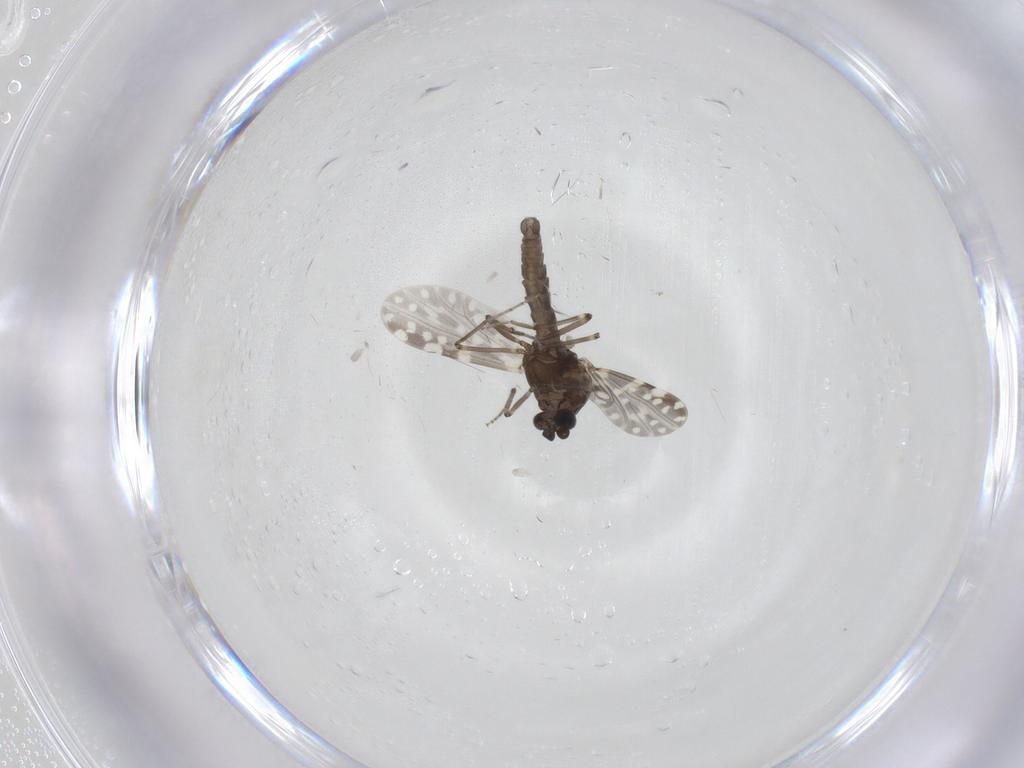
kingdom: Animalia
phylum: Arthropoda
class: Insecta
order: Diptera
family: Ceratopogonidae
